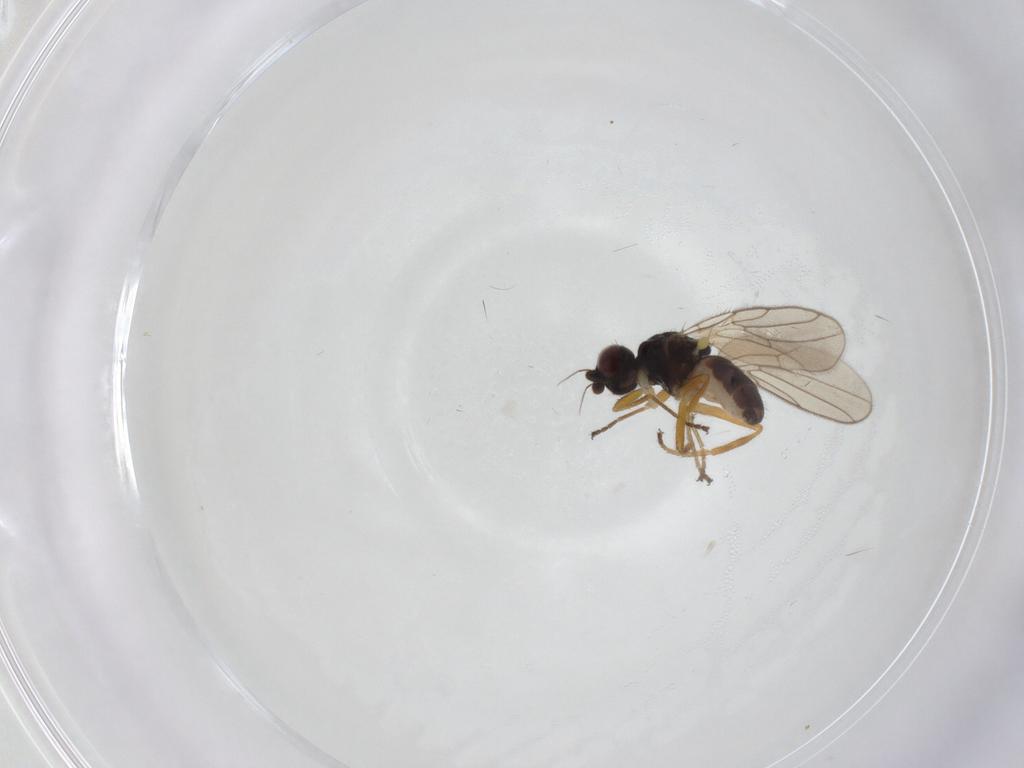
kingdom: Animalia
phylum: Arthropoda
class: Insecta
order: Diptera
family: Chloropidae
